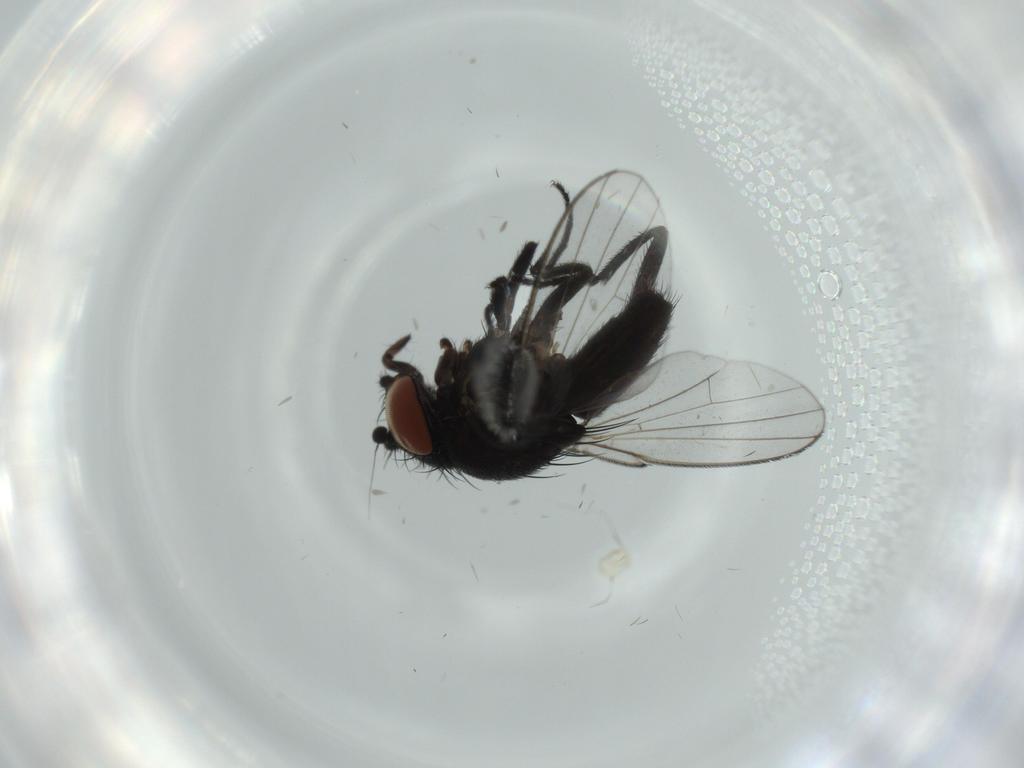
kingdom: Animalia
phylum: Arthropoda
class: Insecta
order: Diptera
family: Milichiidae
